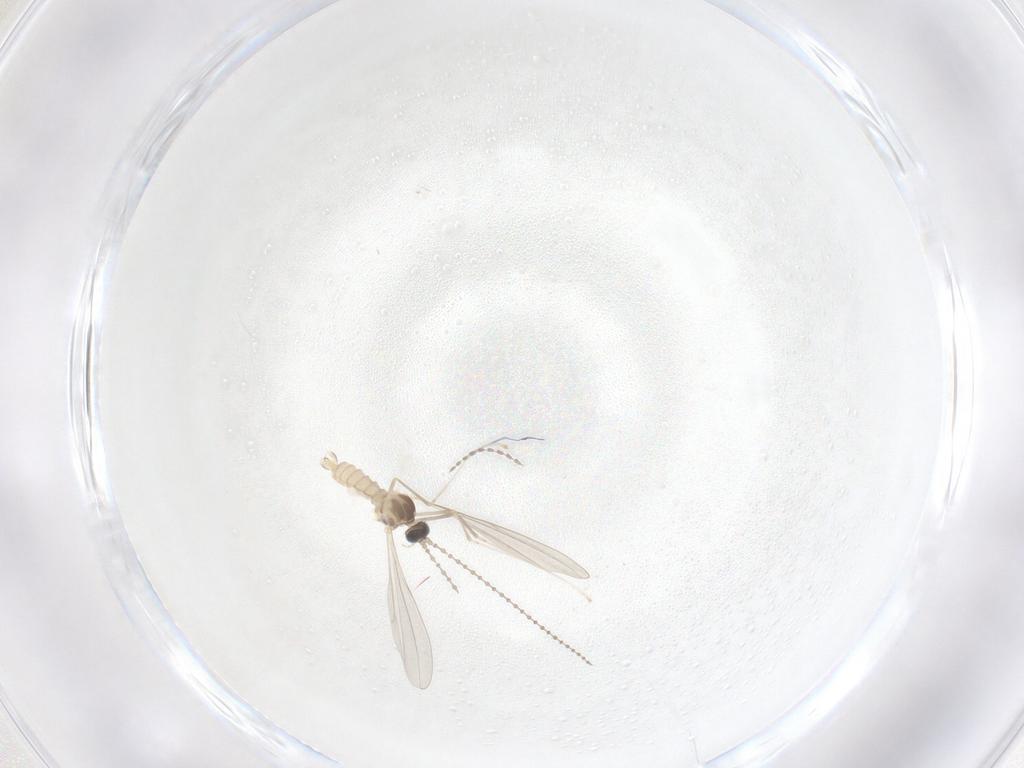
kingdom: Animalia
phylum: Arthropoda
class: Insecta
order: Diptera
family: Cecidomyiidae
